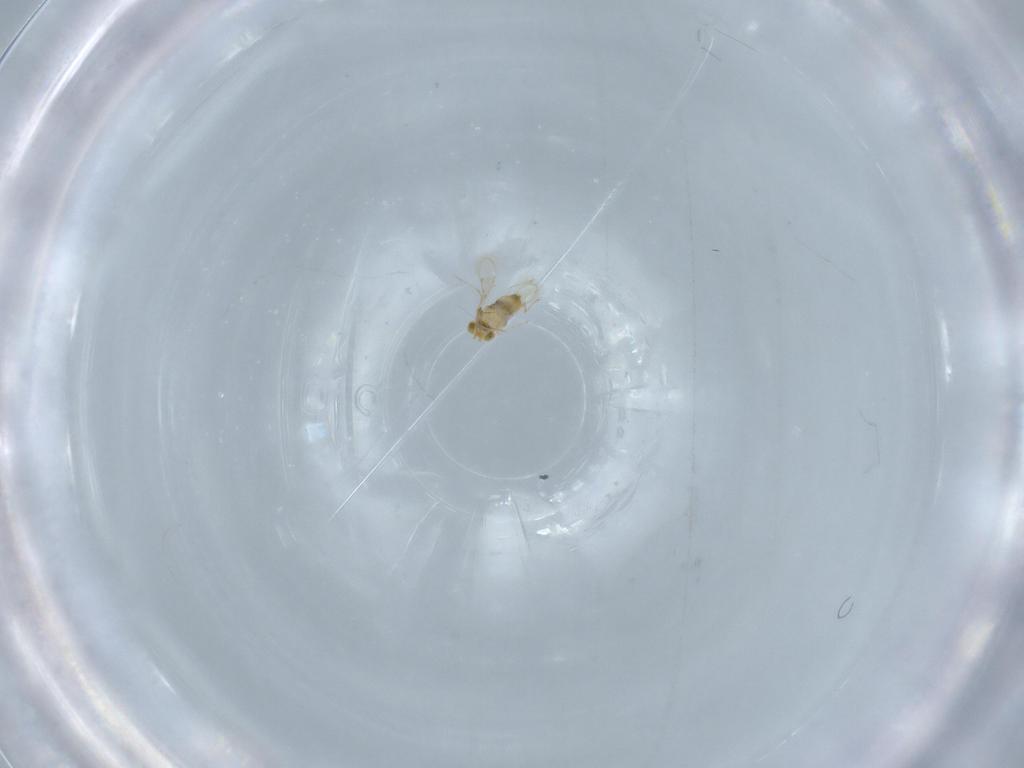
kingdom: Animalia
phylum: Arthropoda
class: Insecta
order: Hymenoptera
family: Aphelinidae
